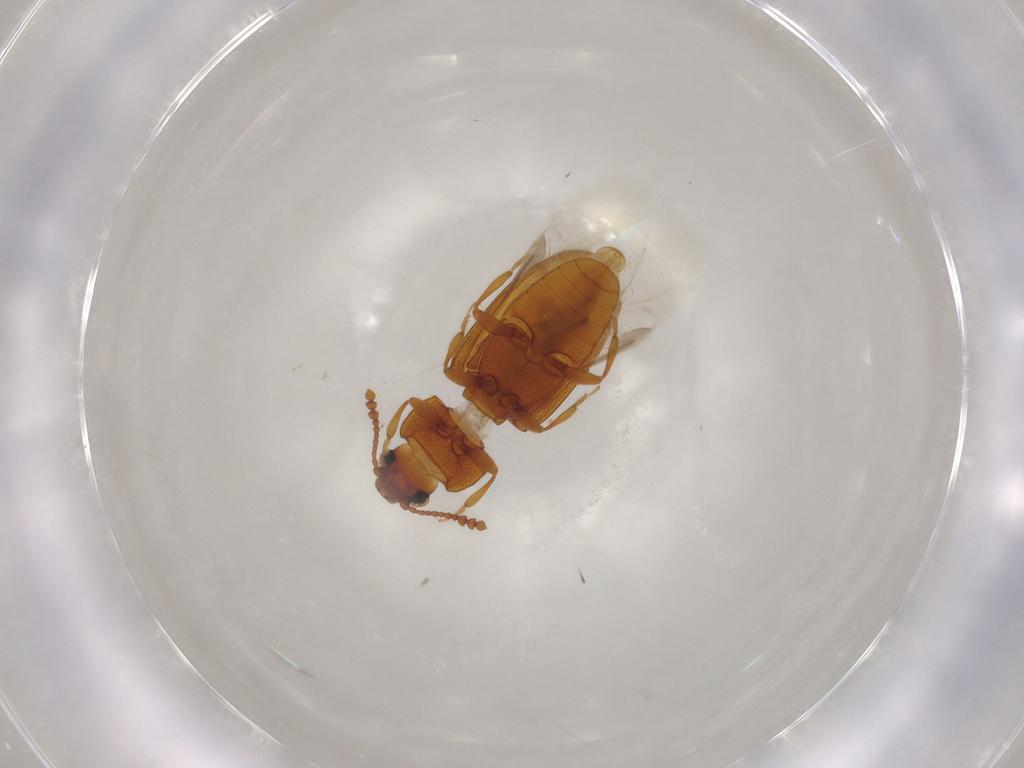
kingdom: Animalia
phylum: Arthropoda
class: Insecta
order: Coleoptera
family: Erotylidae
